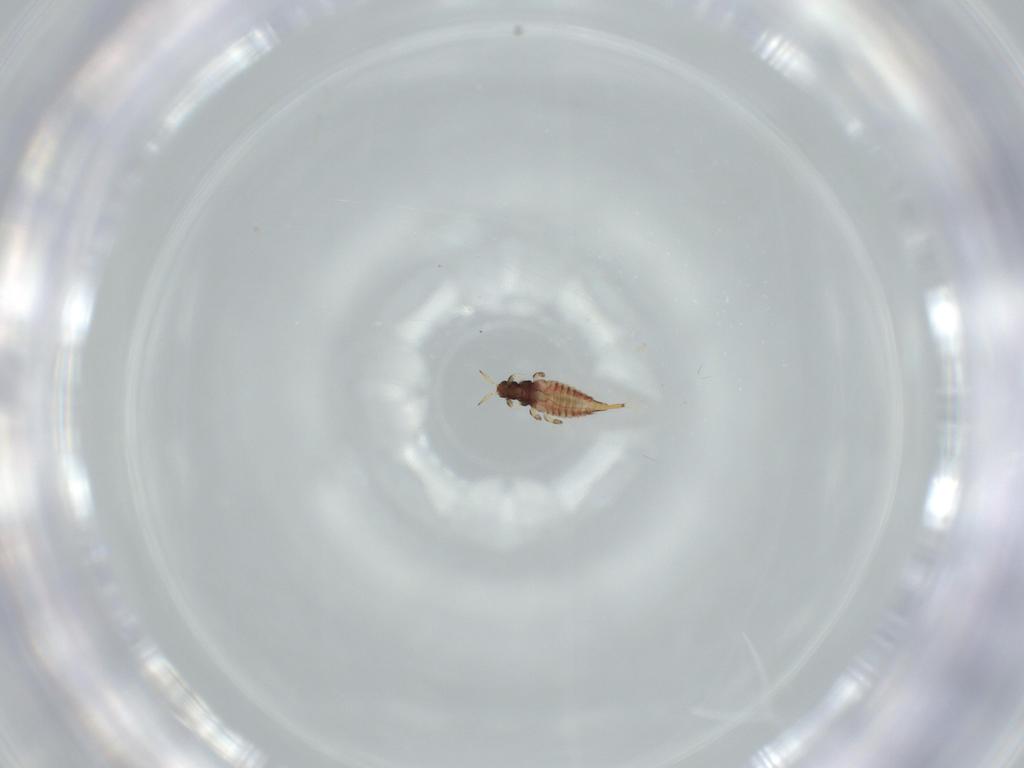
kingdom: Animalia
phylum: Arthropoda
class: Insecta
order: Thysanoptera
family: Phlaeothripidae
